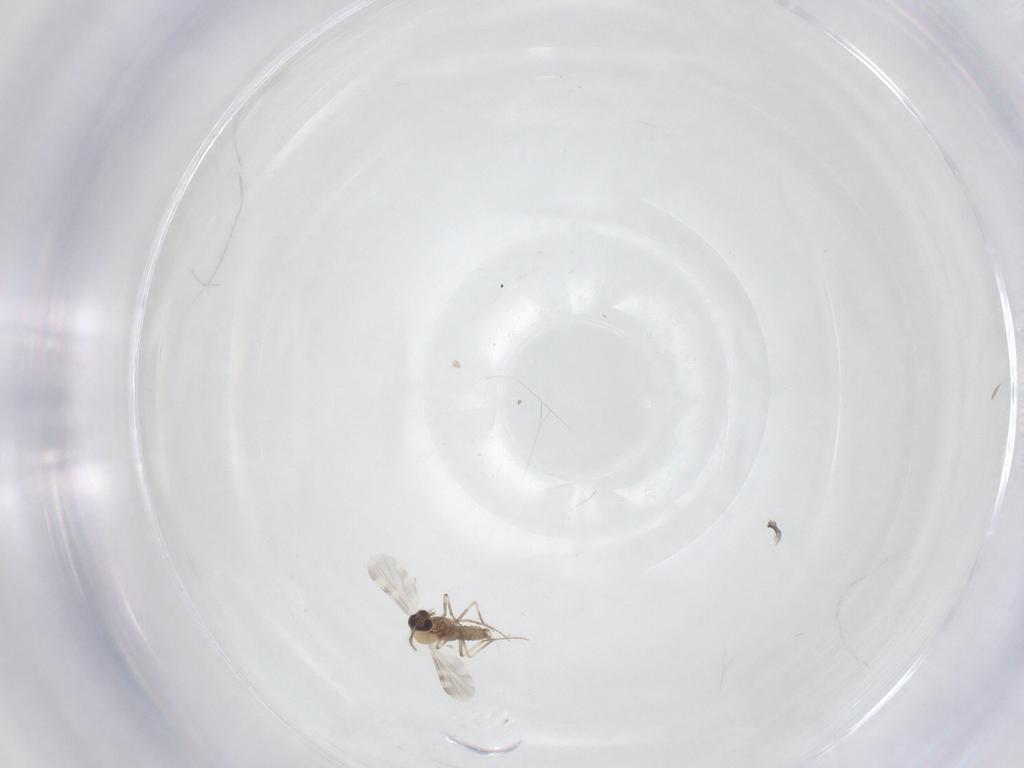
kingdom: Animalia
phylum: Arthropoda
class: Insecta
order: Diptera
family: Ceratopogonidae
